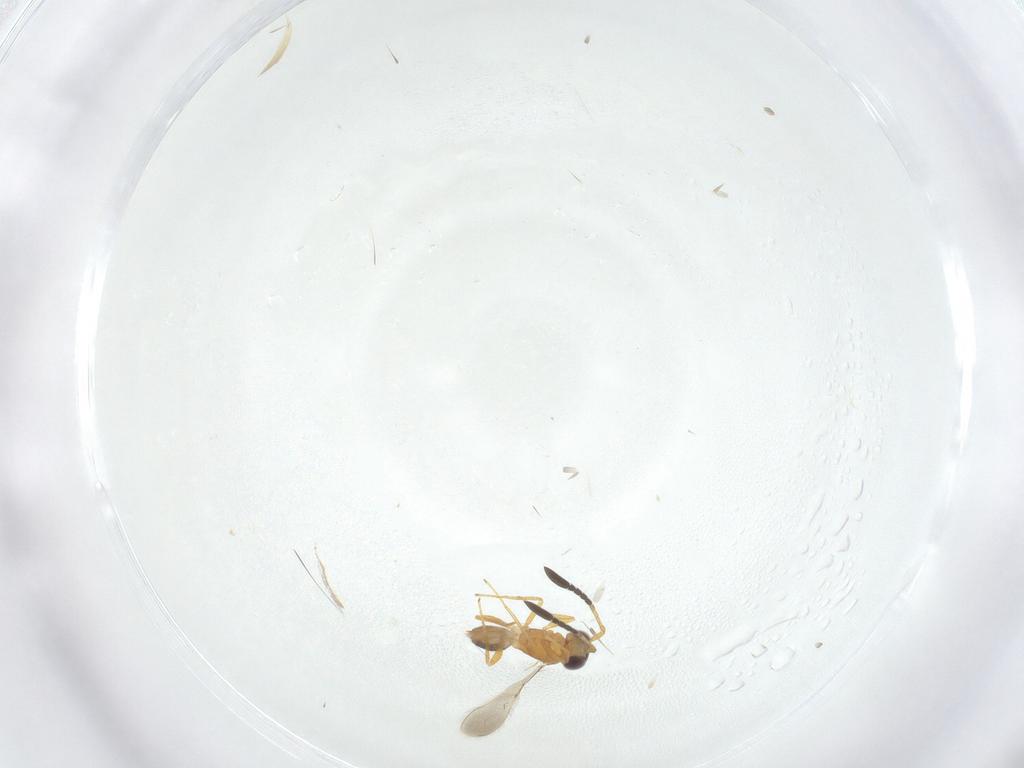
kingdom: Animalia
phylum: Arthropoda
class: Insecta
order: Hymenoptera
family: Mymaridae
